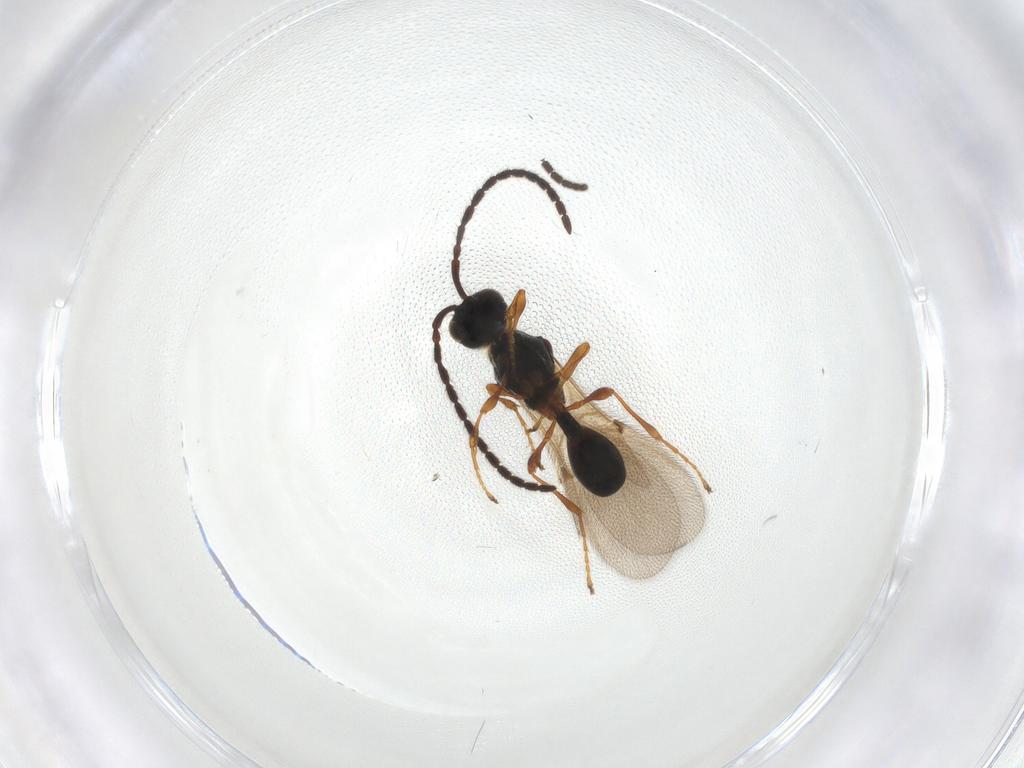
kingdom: Animalia
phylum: Arthropoda
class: Insecta
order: Hymenoptera
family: Diapriidae
